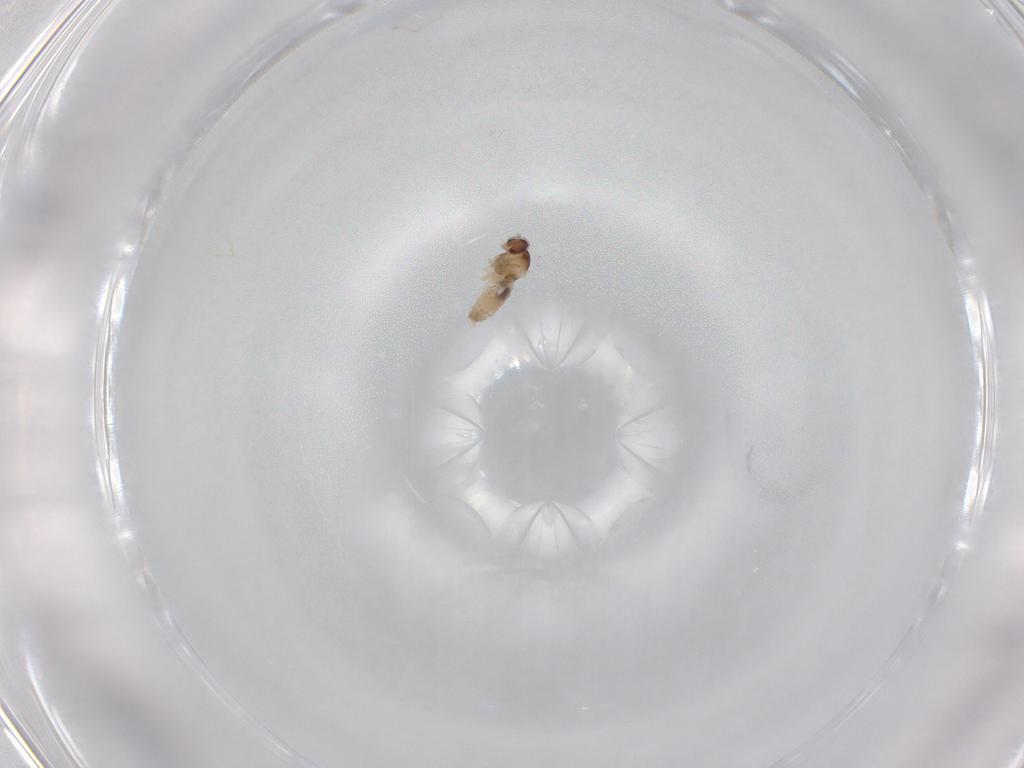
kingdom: Animalia
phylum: Arthropoda
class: Insecta
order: Diptera
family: Cecidomyiidae
